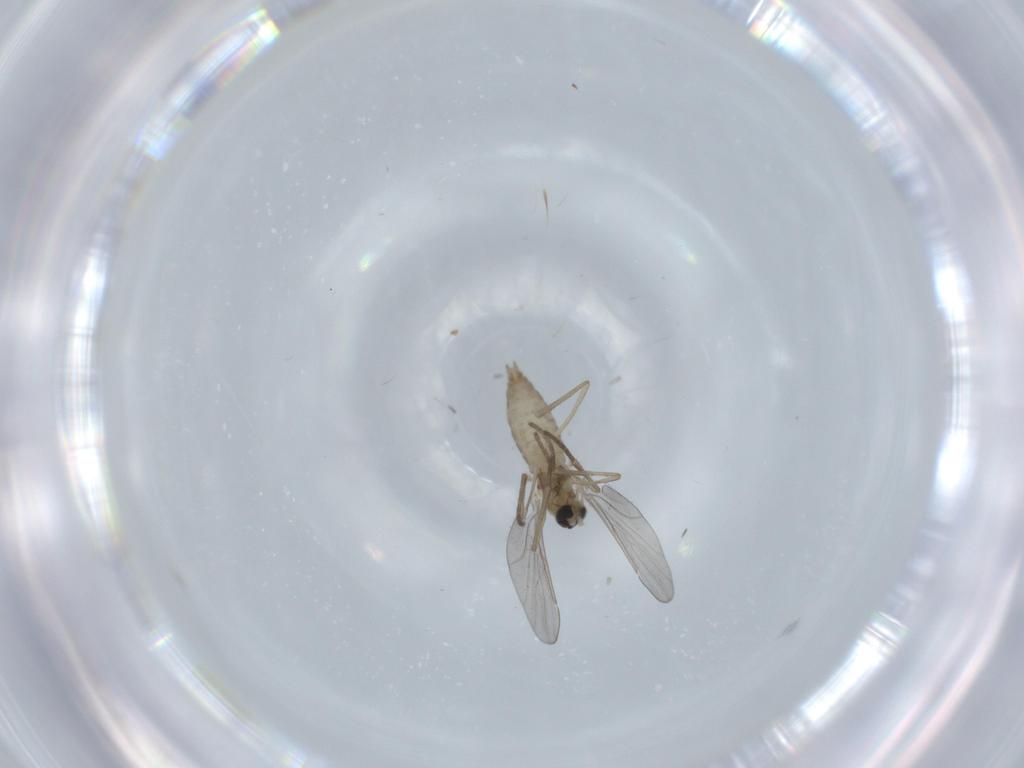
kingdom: Animalia
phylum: Arthropoda
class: Insecta
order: Diptera
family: Cecidomyiidae
